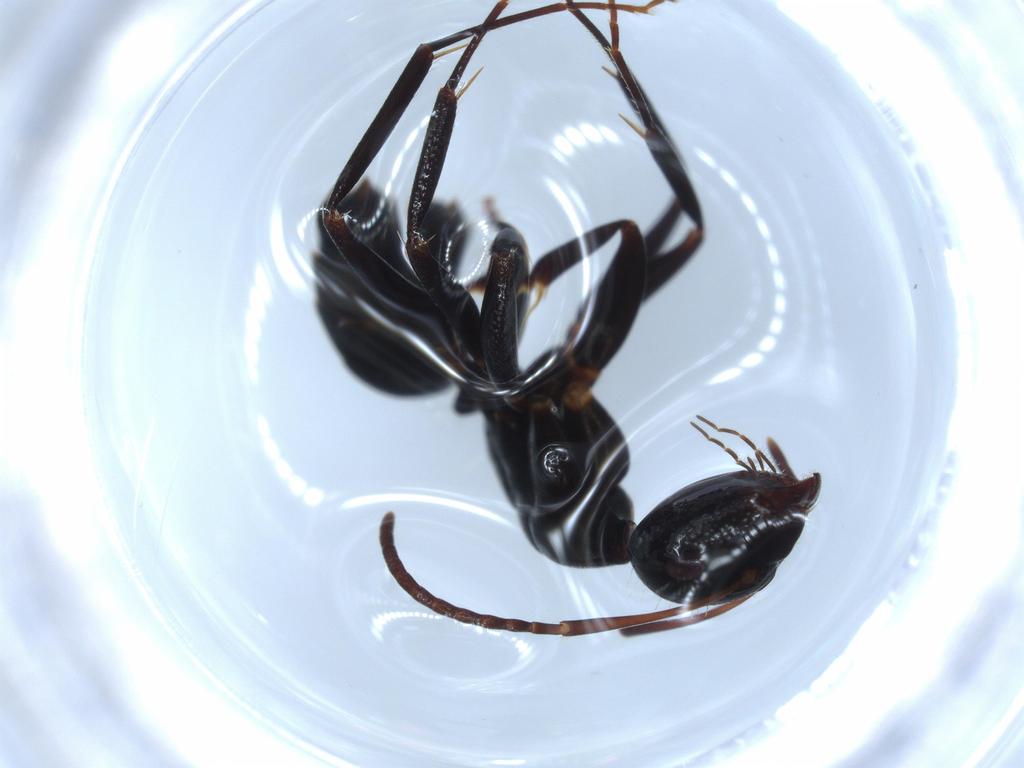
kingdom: Animalia
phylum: Arthropoda
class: Insecta
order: Hymenoptera
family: Formicidae
